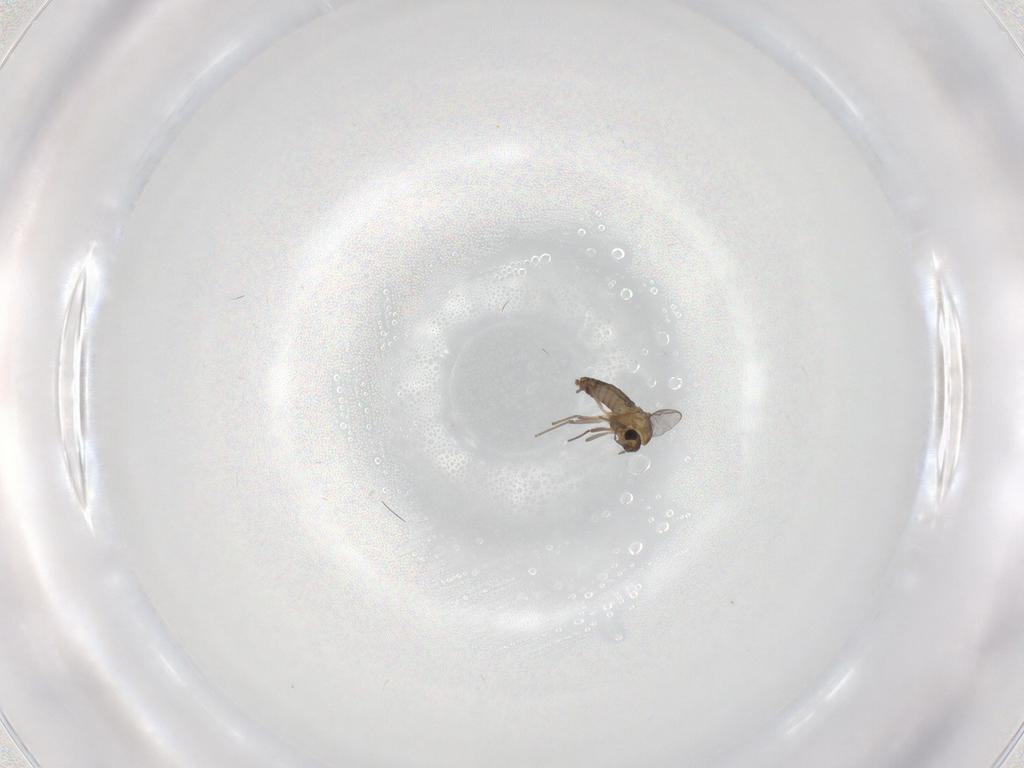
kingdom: Animalia
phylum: Arthropoda
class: Insecta
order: Diptera
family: Chironomidae
